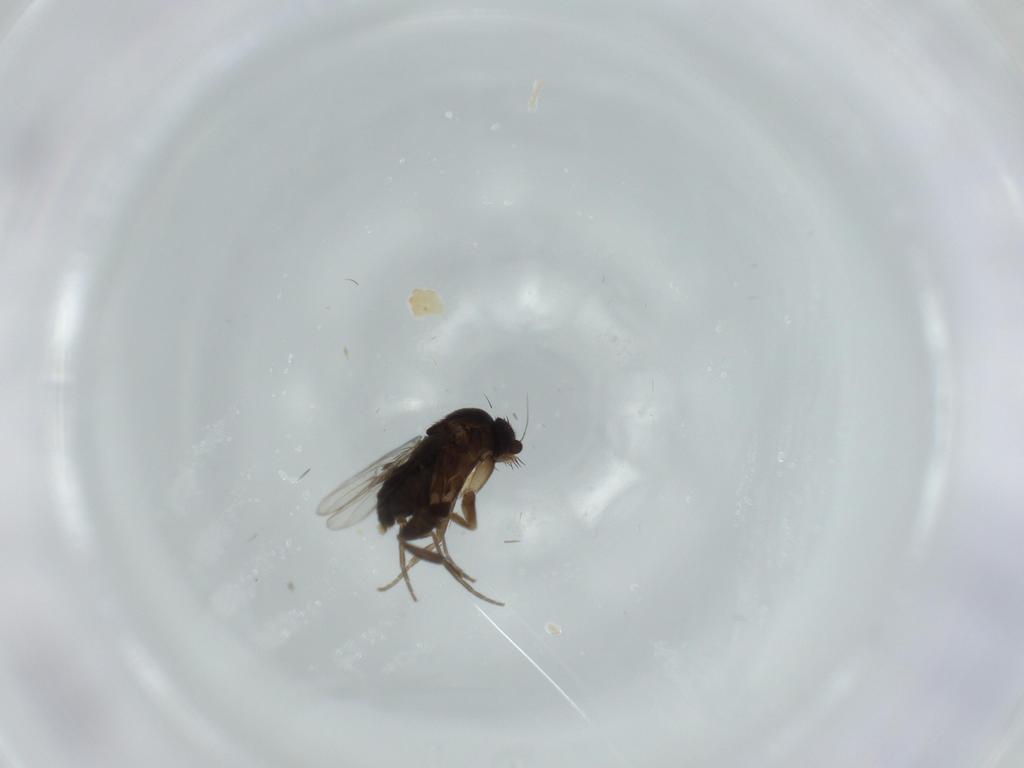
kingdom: Animalia
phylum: Arthropoda
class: Insecta
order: Diptera
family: Phoridae
